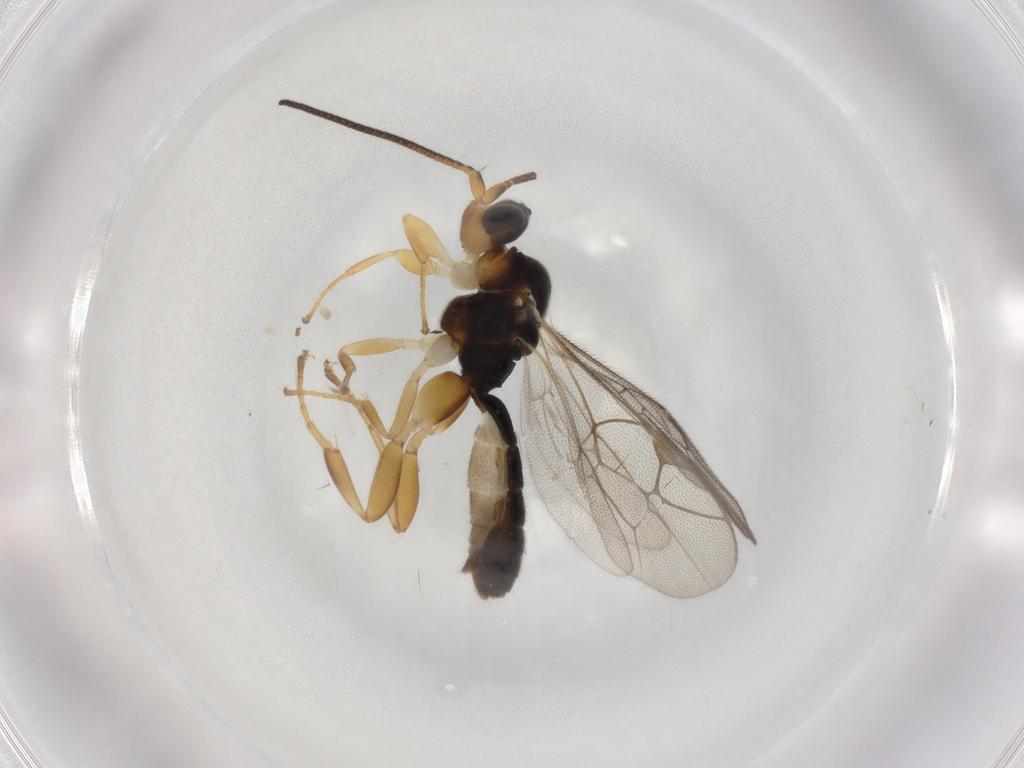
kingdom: Animalia
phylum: Arthropoda
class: Insecta
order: Hymenoptera
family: Ichneumonidae
